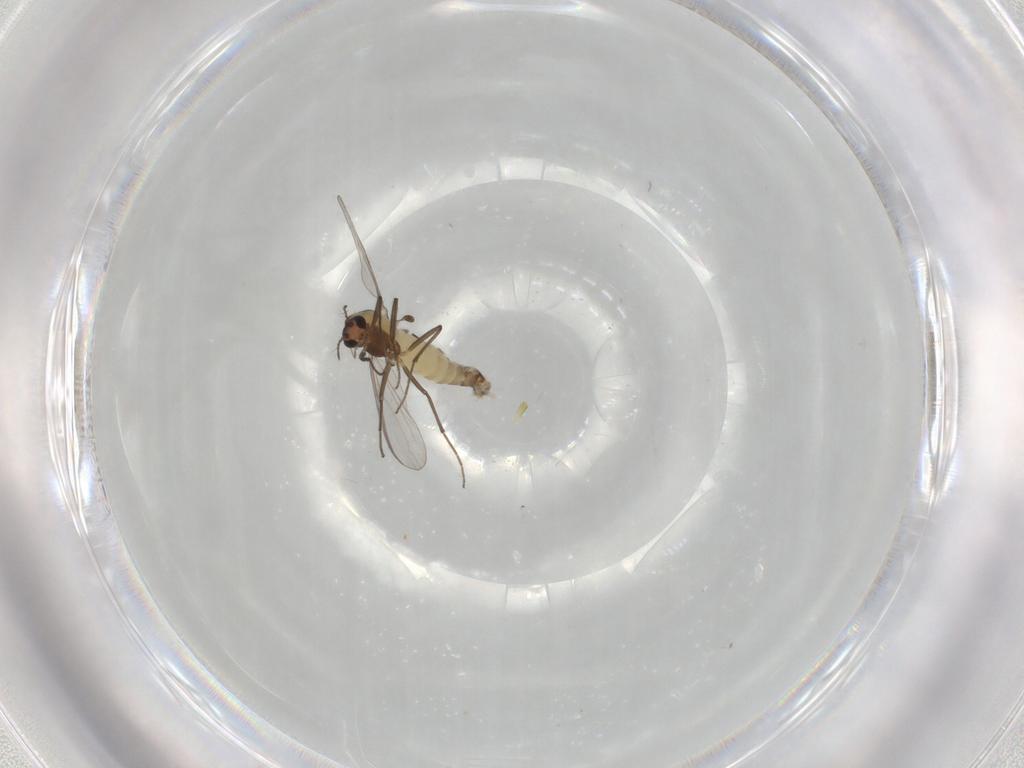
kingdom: Animalia
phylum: Arthropoda
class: Insecta
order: Diptera
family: Chironomidae
